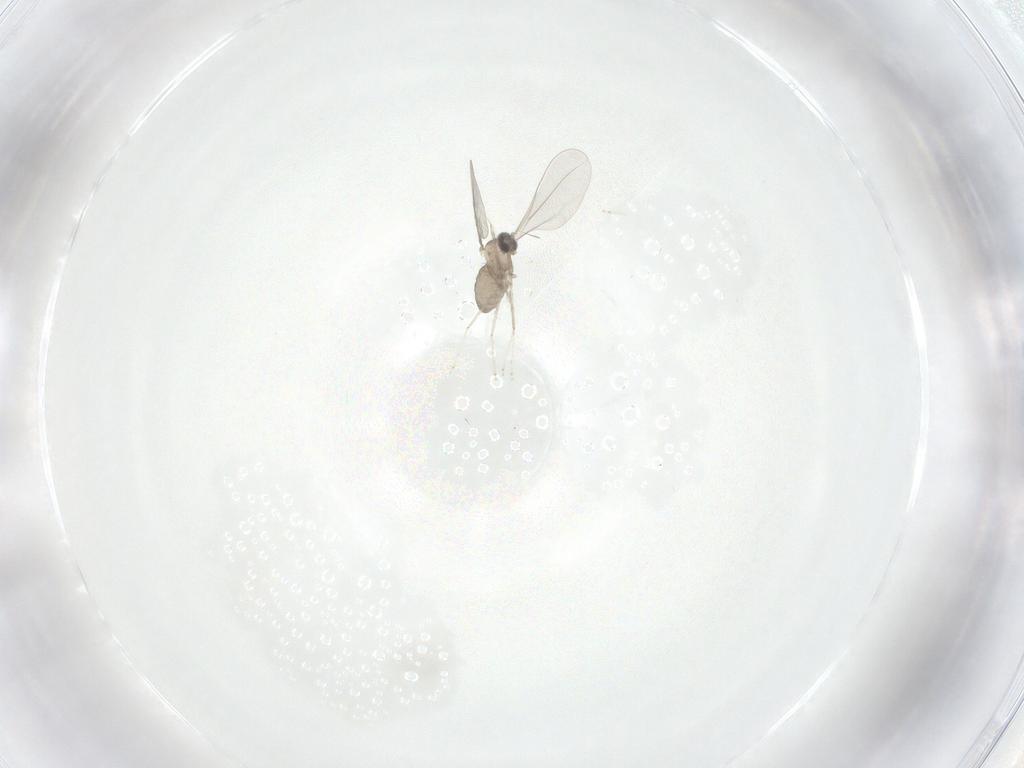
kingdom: Animalia
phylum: Arthropoda
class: Insecta
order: Diptera
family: Cecidomyiidae
